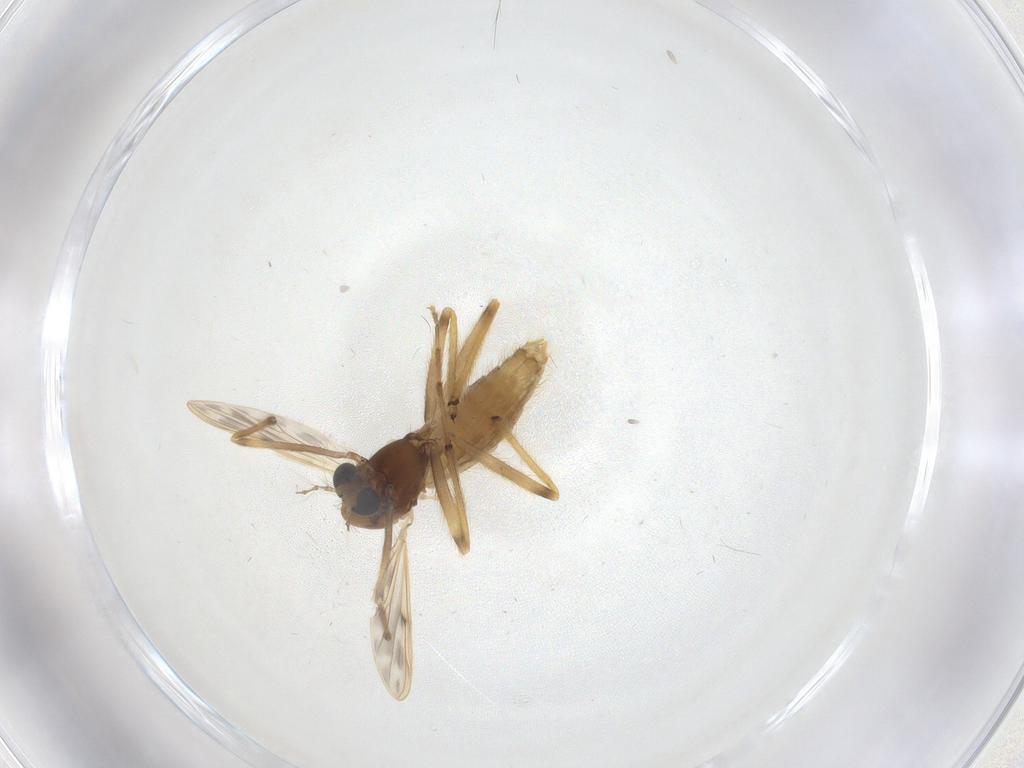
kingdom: Animalia
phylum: Arthropoda
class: Insecta
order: Diptera
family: Chironomidae
